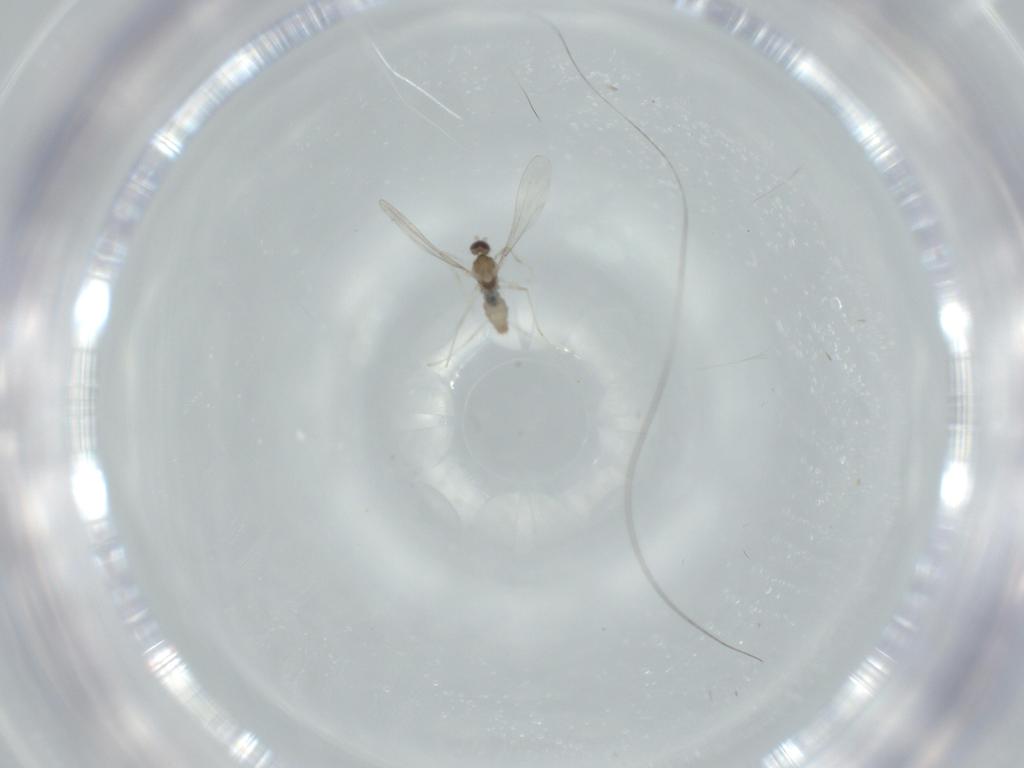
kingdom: Animalia
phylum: Arthropoda
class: Insecta
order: Diptera
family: Cecidomyiidae
